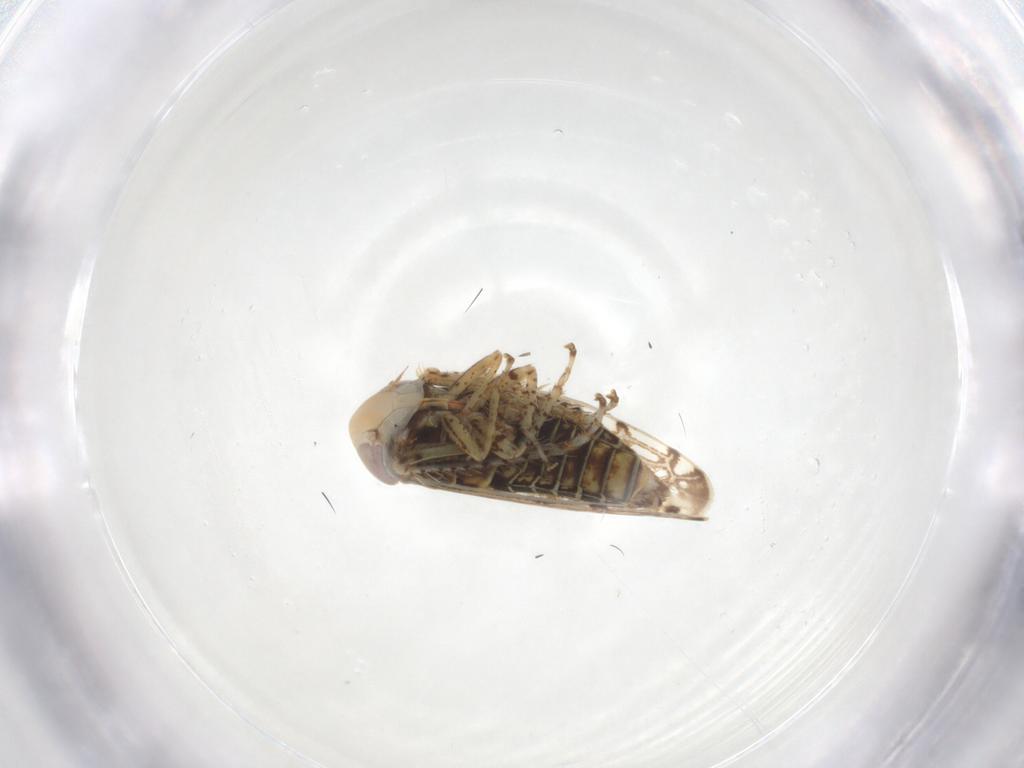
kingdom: Animalia
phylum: Arthropoda
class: Insecta
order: Hemiptera
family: Cicadellidae
